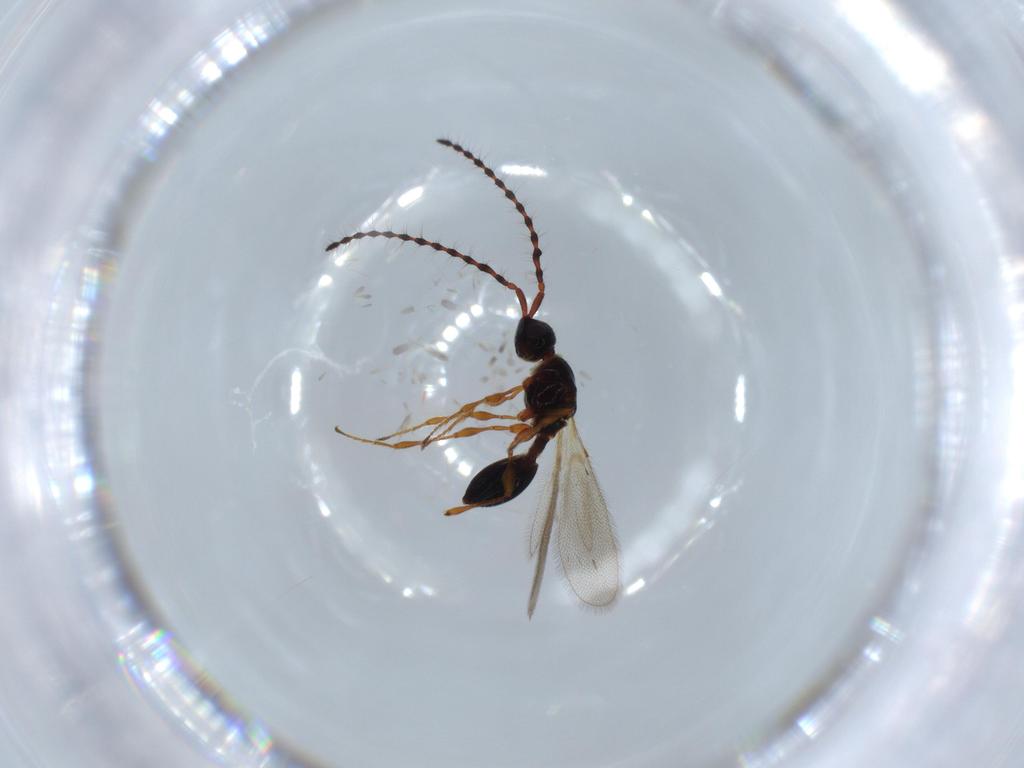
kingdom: Animalia
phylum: Arthropoda
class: Insecta
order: Hymenoptera
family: Diapriidae
